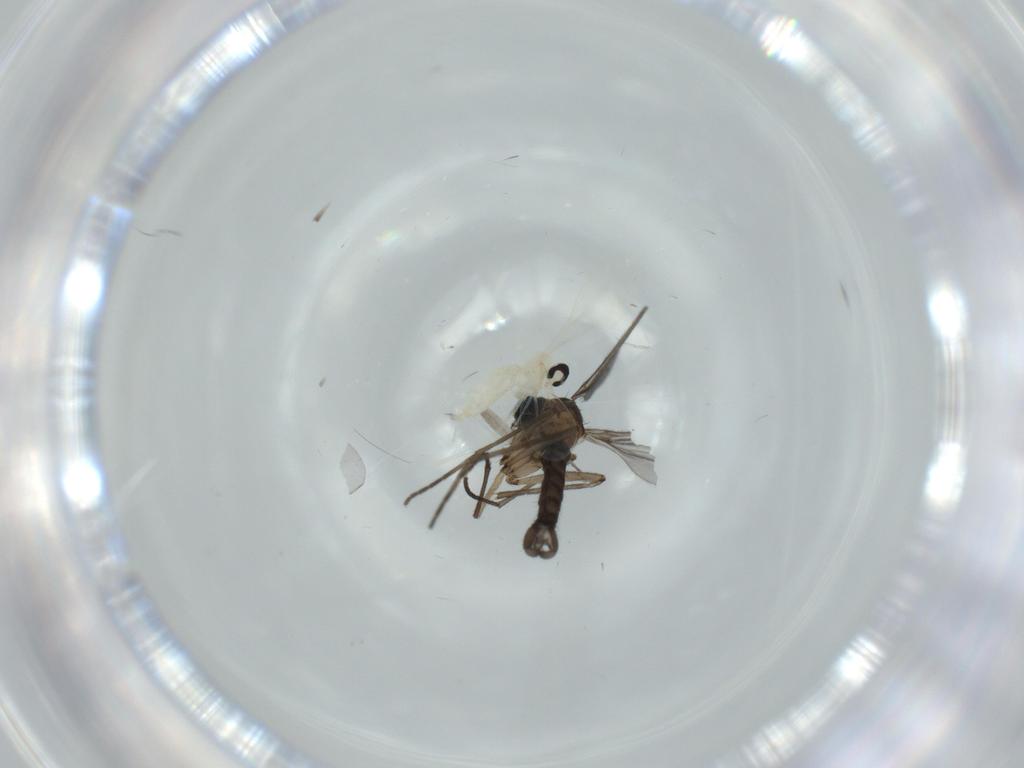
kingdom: Animalia
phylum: Arthropoda
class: Insecta
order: Diptera
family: Cecidomyiidae
